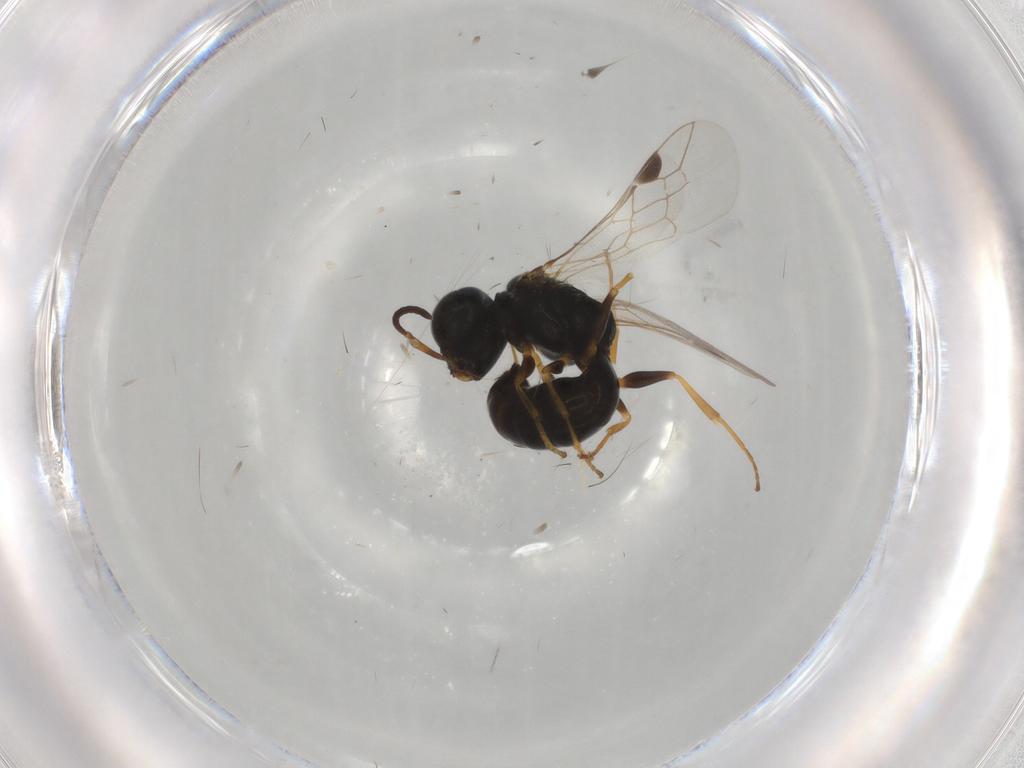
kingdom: Animalia
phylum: Arthropoda
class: Insecta
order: Hymenoptera
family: Crabronidae
